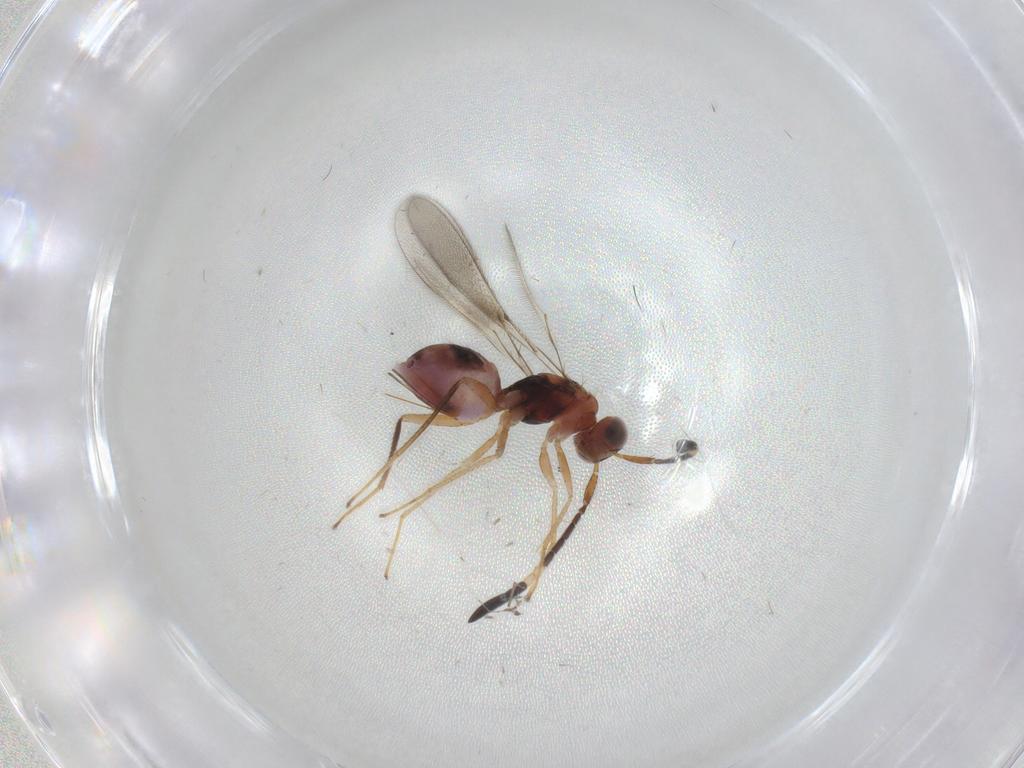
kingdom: Animalia
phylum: Arthropoda
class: Insecta
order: Hymenoptera
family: Mymaridae
